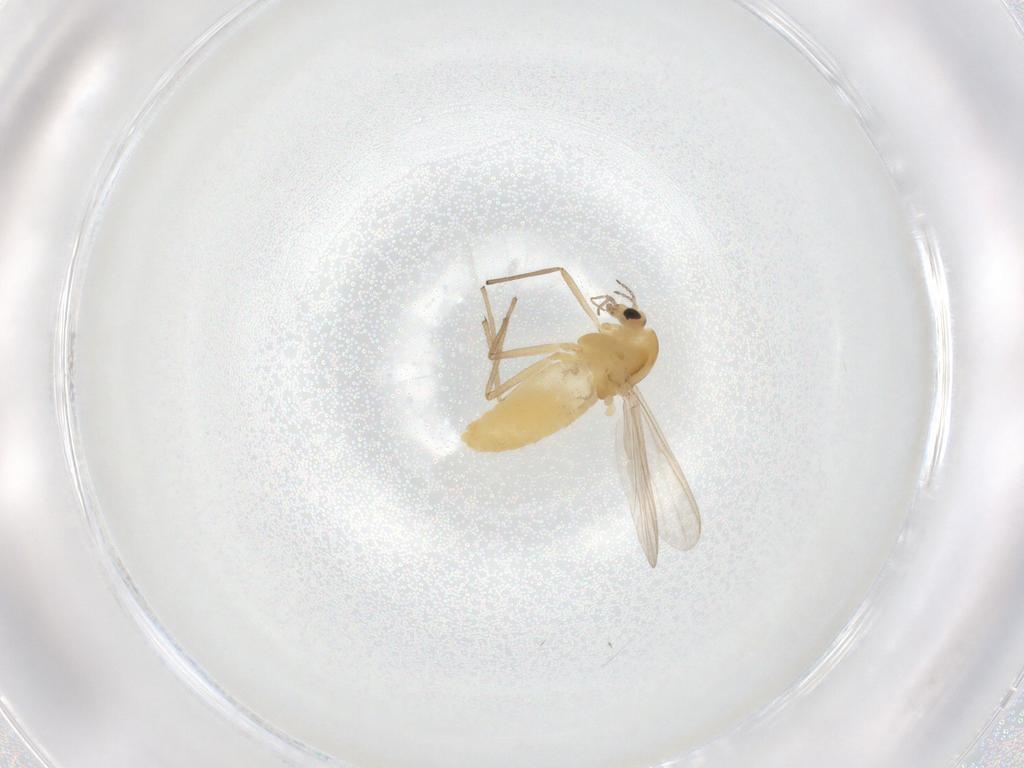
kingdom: Animalia
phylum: Arthropoda
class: Insecta
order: Diptera
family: Chironomidae
